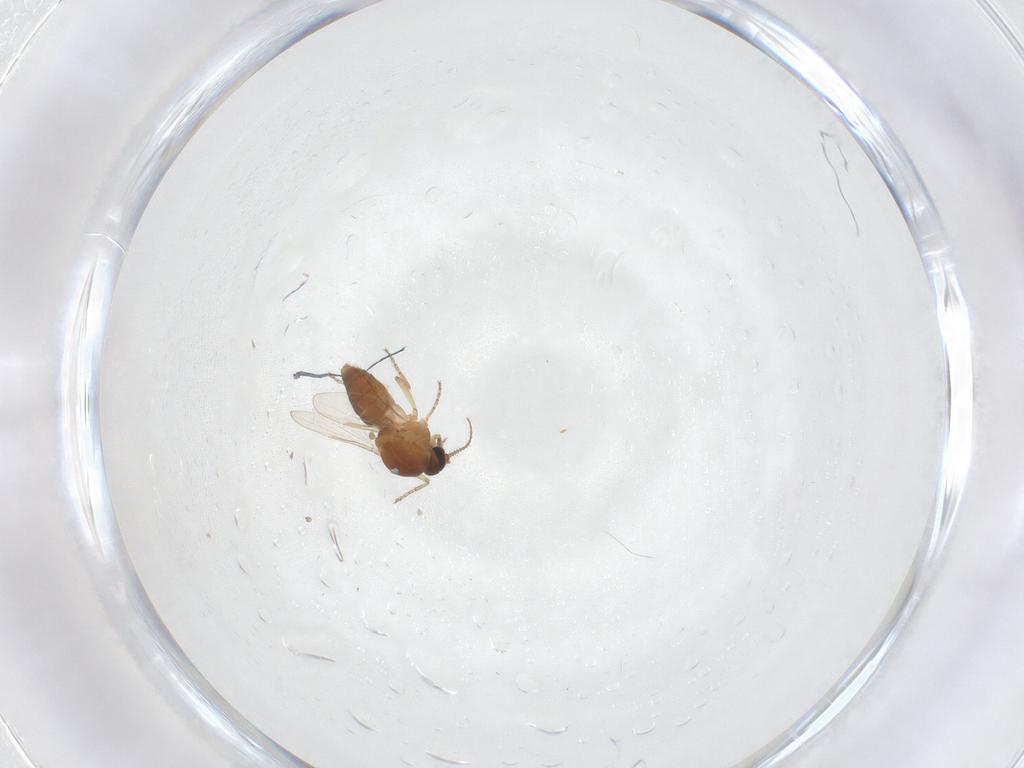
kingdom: Animalia
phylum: Arthropoda
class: Insecta
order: Diptera
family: Ceratopogonidae
